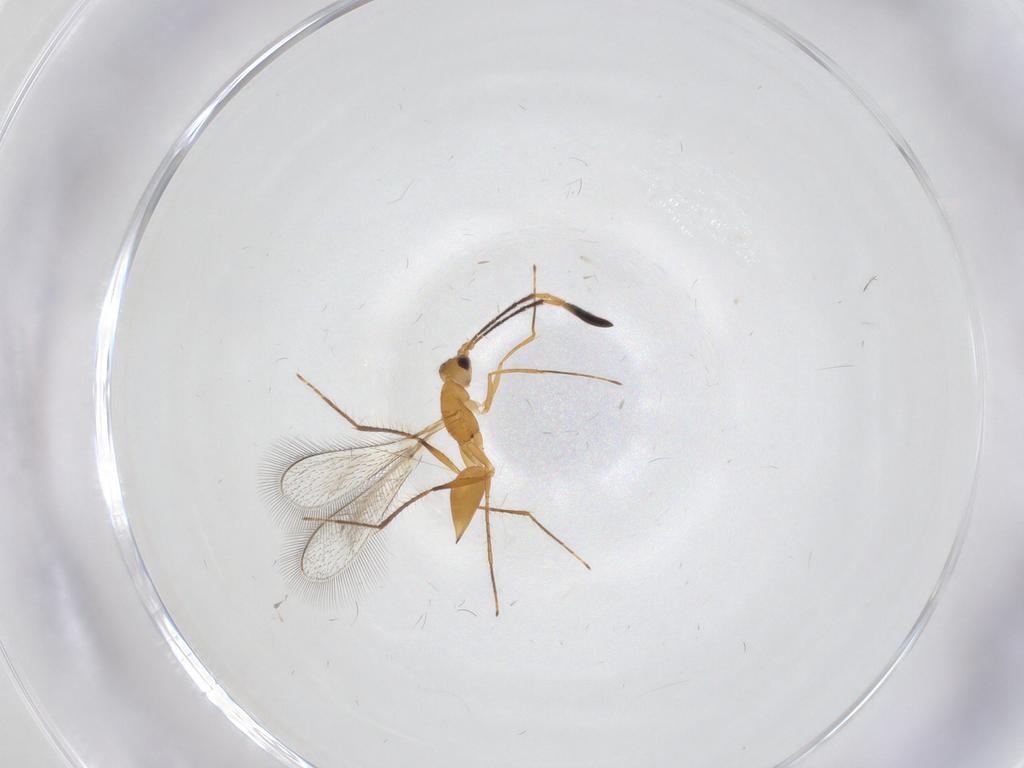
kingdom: Animalia
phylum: Arthropoda
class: Insecta
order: Hymenoptera
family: Mymaridae
